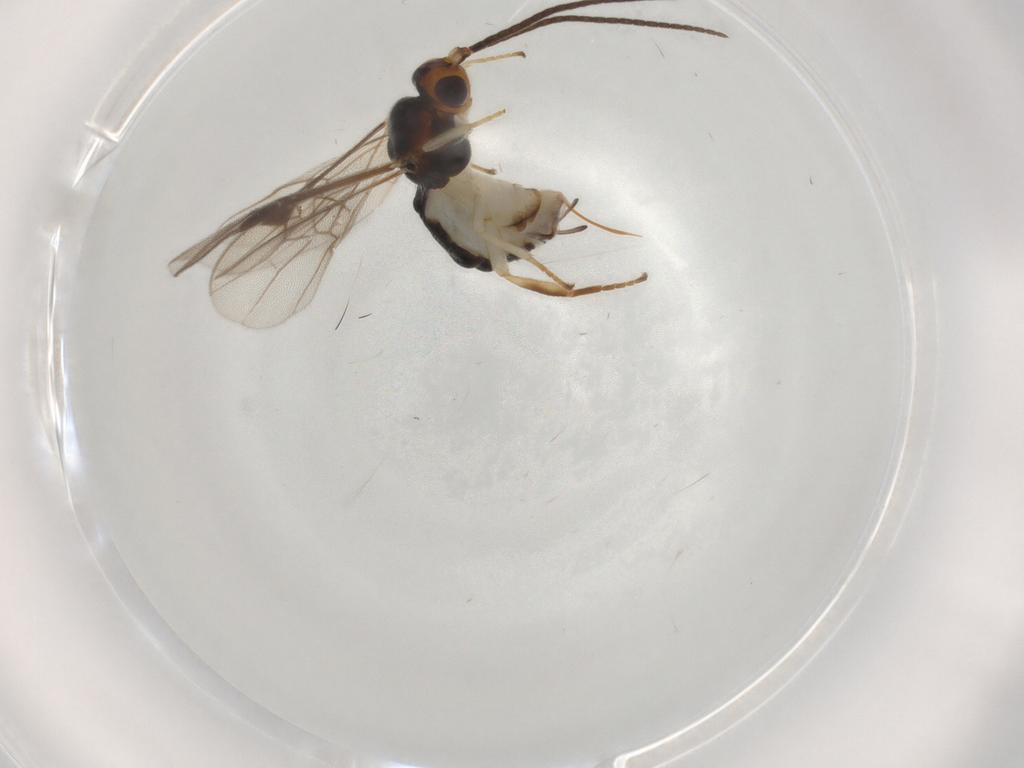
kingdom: Animalia
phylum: Arthropoda
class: Insecta
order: Hymenoptera
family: Braconidae
